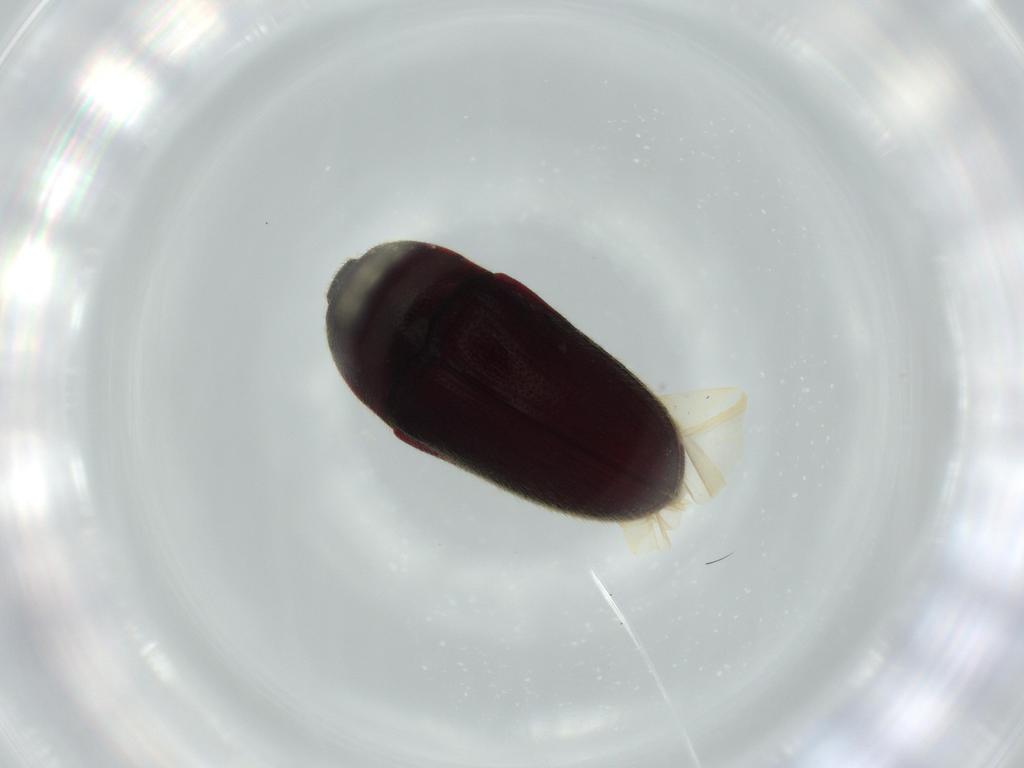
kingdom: Animalia
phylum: Arthropoda
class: Insecta
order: Coleoptera
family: Throscidae
